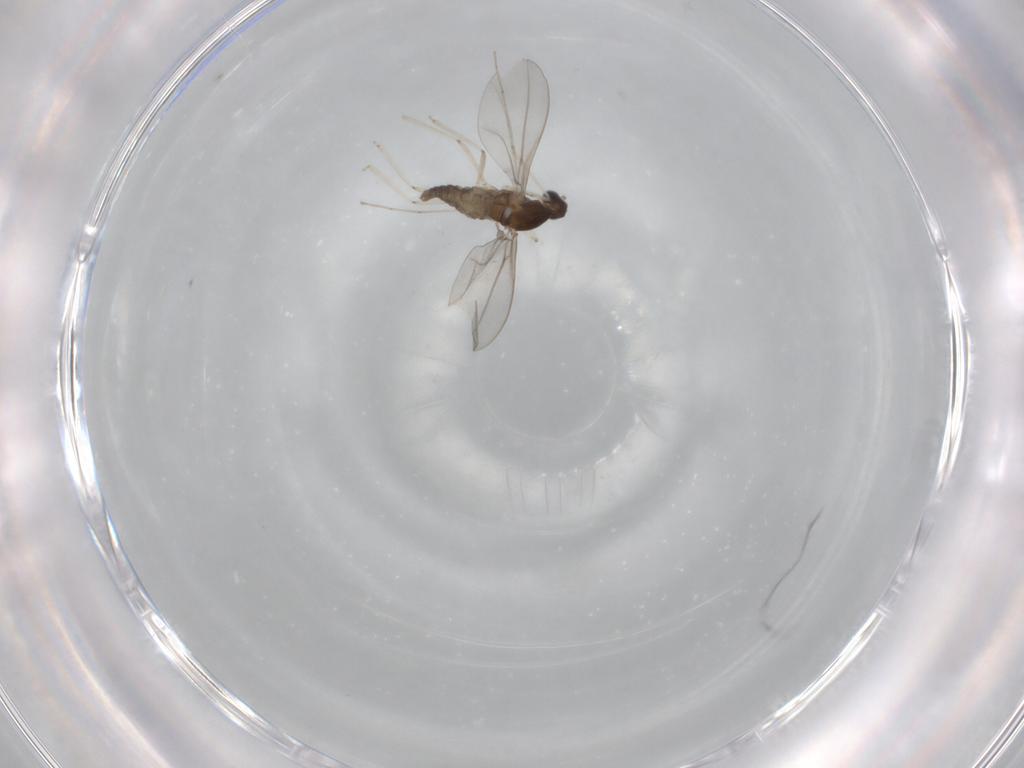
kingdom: Animalia
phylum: Arthropoda
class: Insecta
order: Diptera
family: Cecidomyiidae
